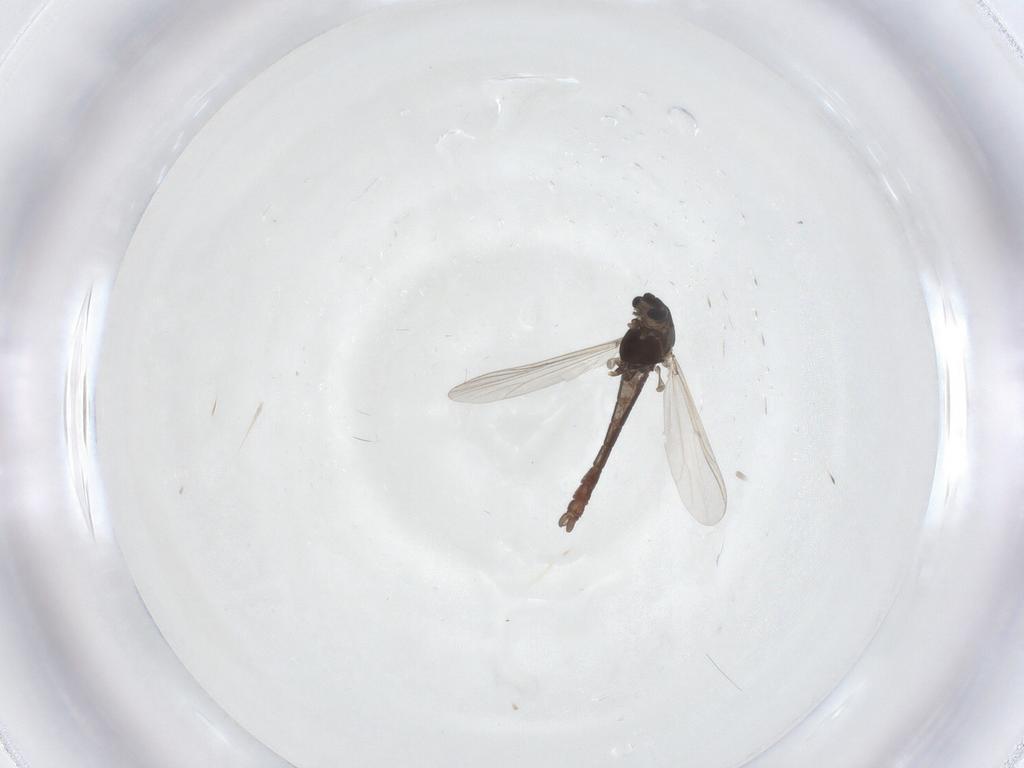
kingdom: Animalia
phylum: Arthropoda
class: Insecta
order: Diptera
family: Chironomidae
